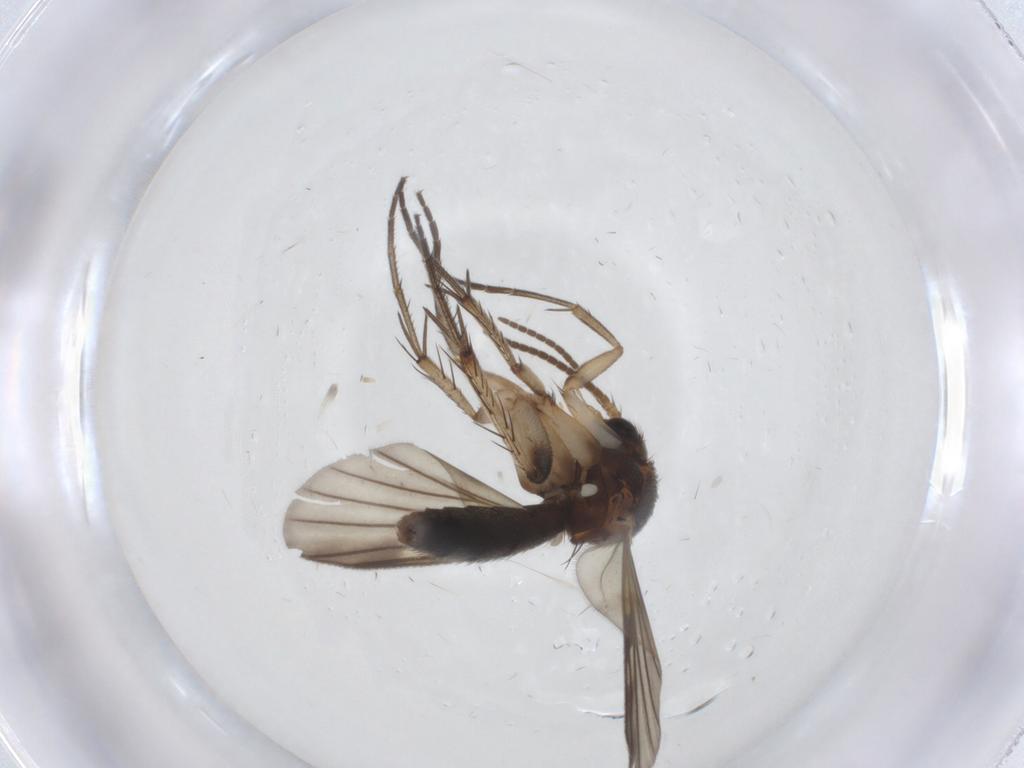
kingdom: Animalia
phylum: Arthropoda
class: Insecta
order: Diptera
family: Mycetophilidae
